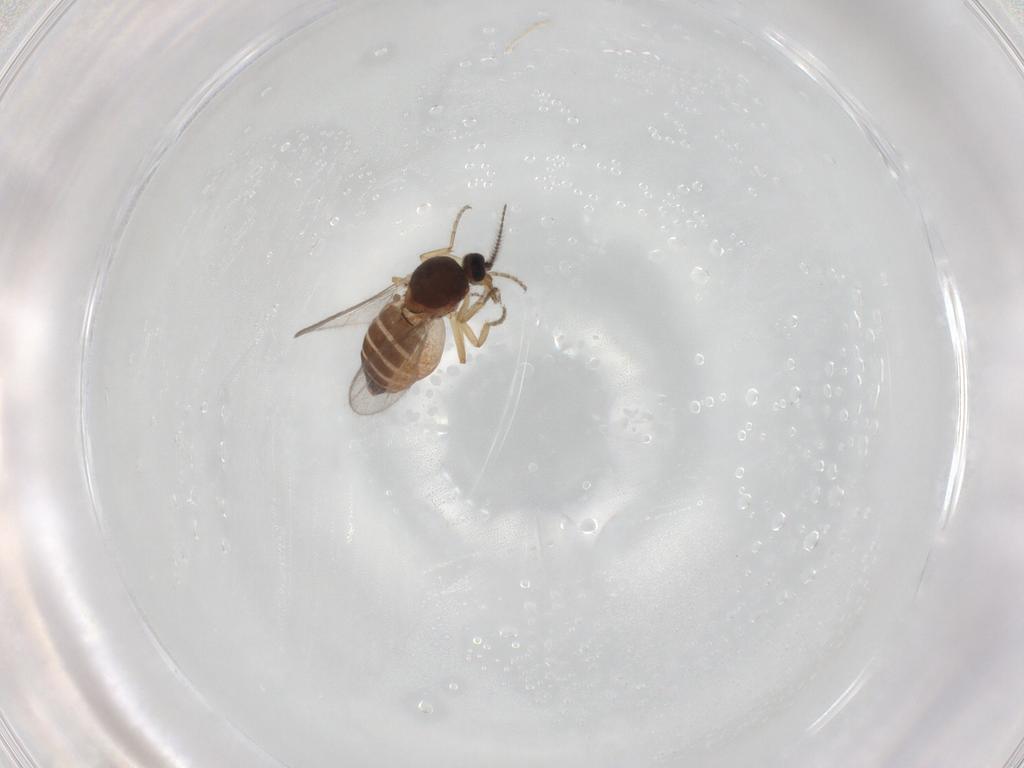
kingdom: Animalia
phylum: Arthropoda
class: Insecta
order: Diptera
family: Ceratopogonidae
